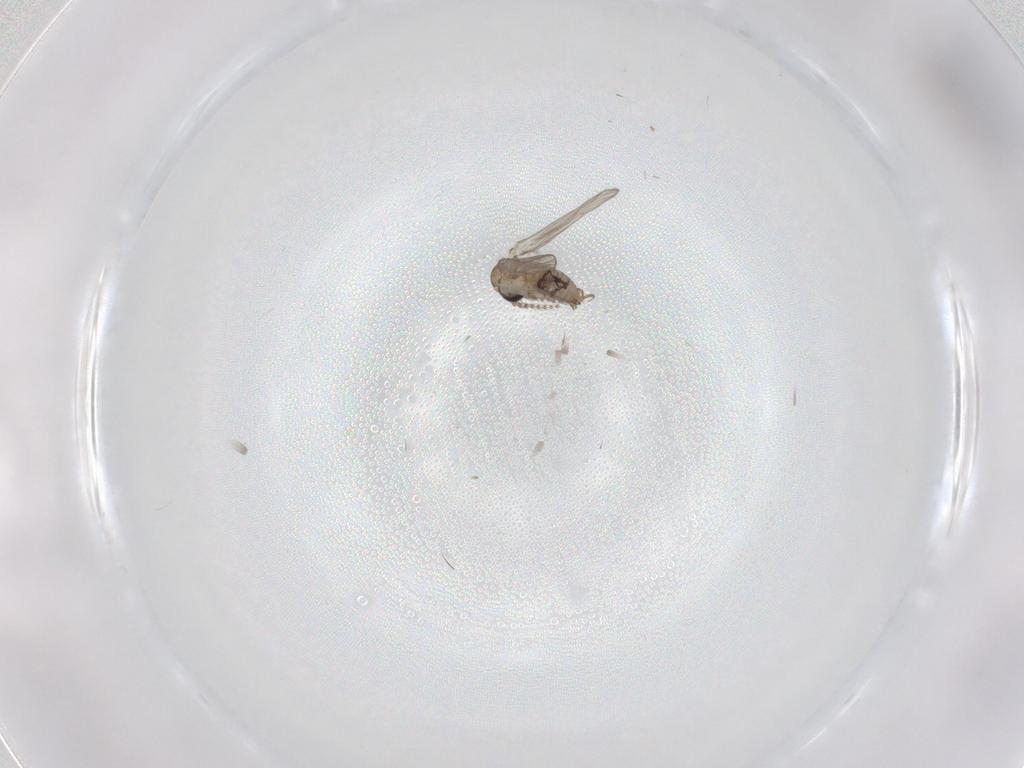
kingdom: Animalia
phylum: Arthropoda
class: Insecta
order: Diptera
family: Psychodidae
